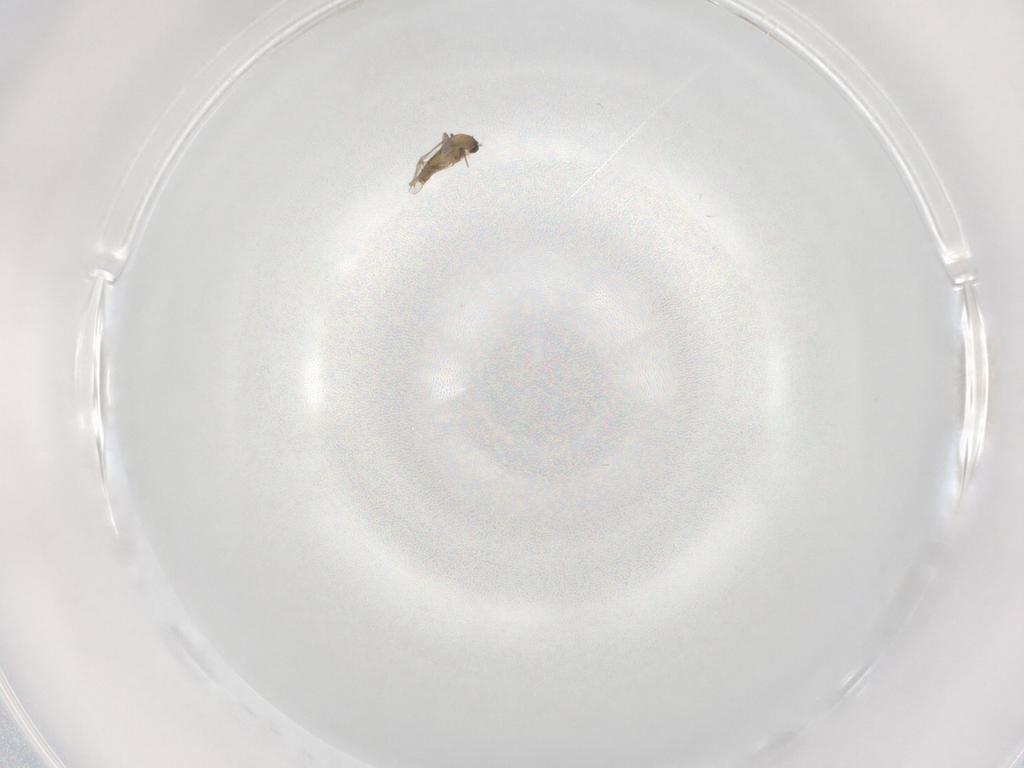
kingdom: Animalia
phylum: Arthropoda
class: Insecta
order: Diptera
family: Cecidomyiidae
